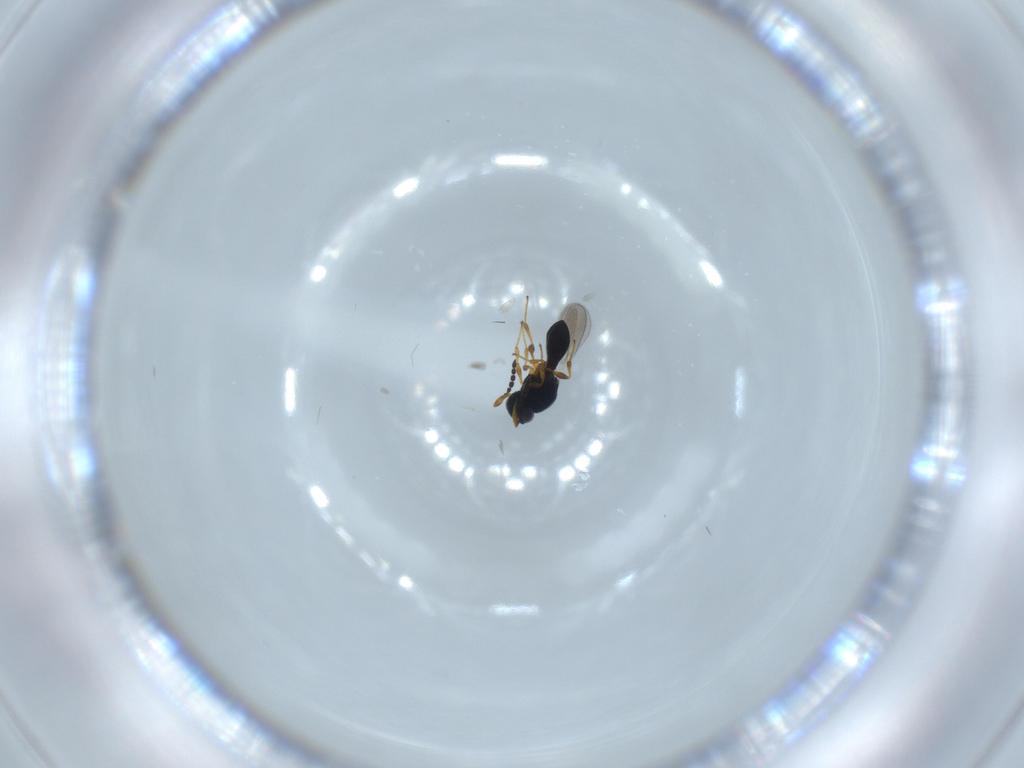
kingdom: Animalia
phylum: Arthropoda
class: Insecta
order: Hymenoptera
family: Platygastridae
